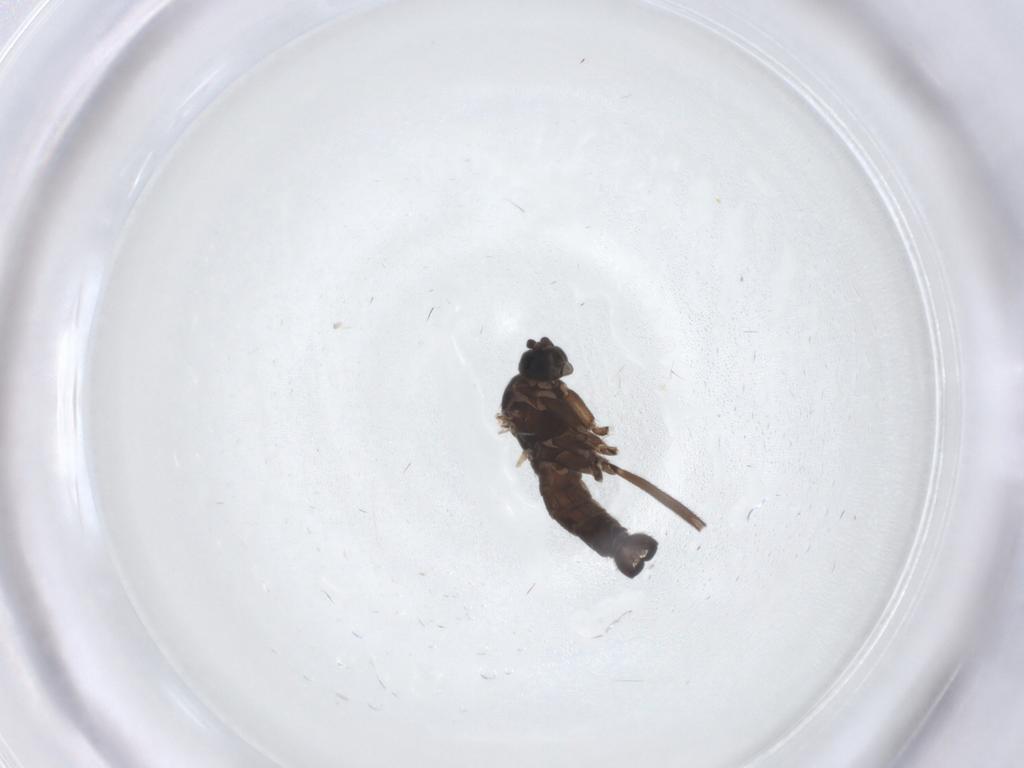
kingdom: Animalia
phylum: Arthropoda
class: Insecta
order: Diptera
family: Sciaridae
